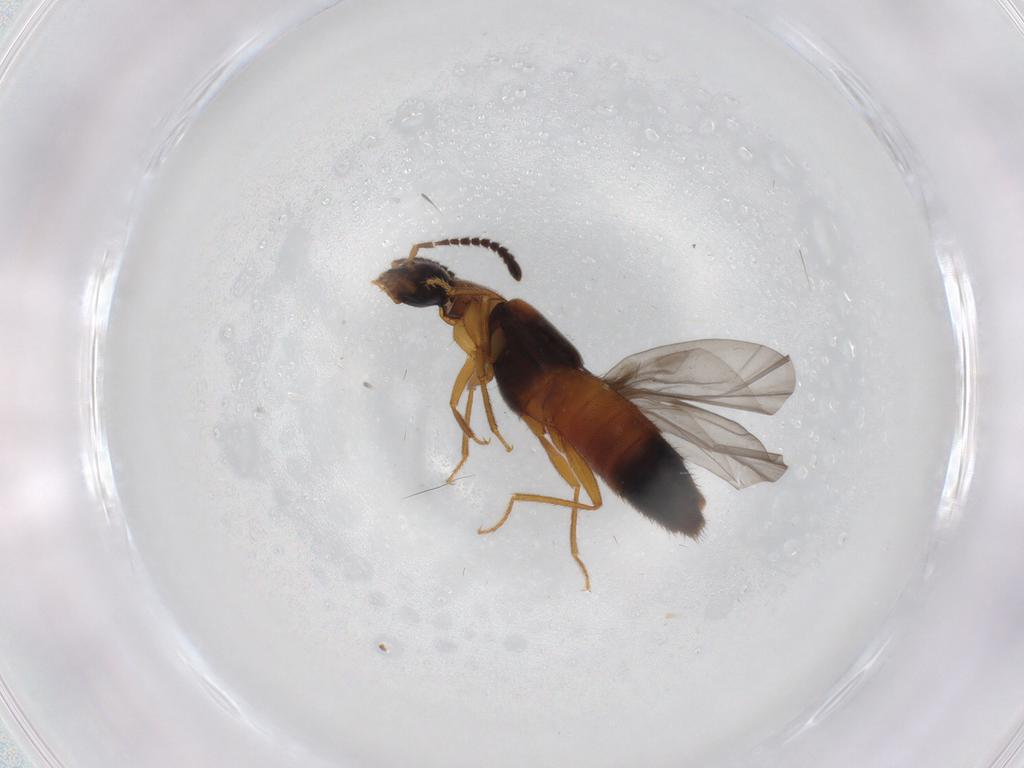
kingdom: Animalia
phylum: Arthropoda
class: Insecta
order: Coleoptera
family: Staphylinidae
